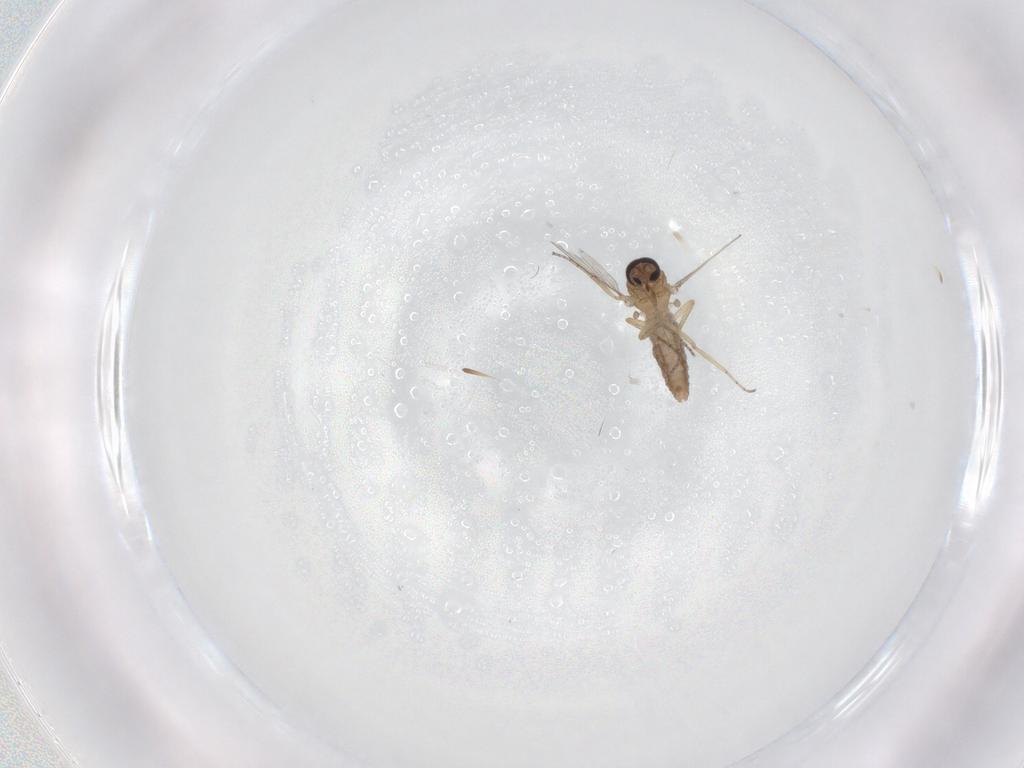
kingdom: Animalia
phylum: Arthropoda
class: Insecta
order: Diptera
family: Ceratopogonidae
